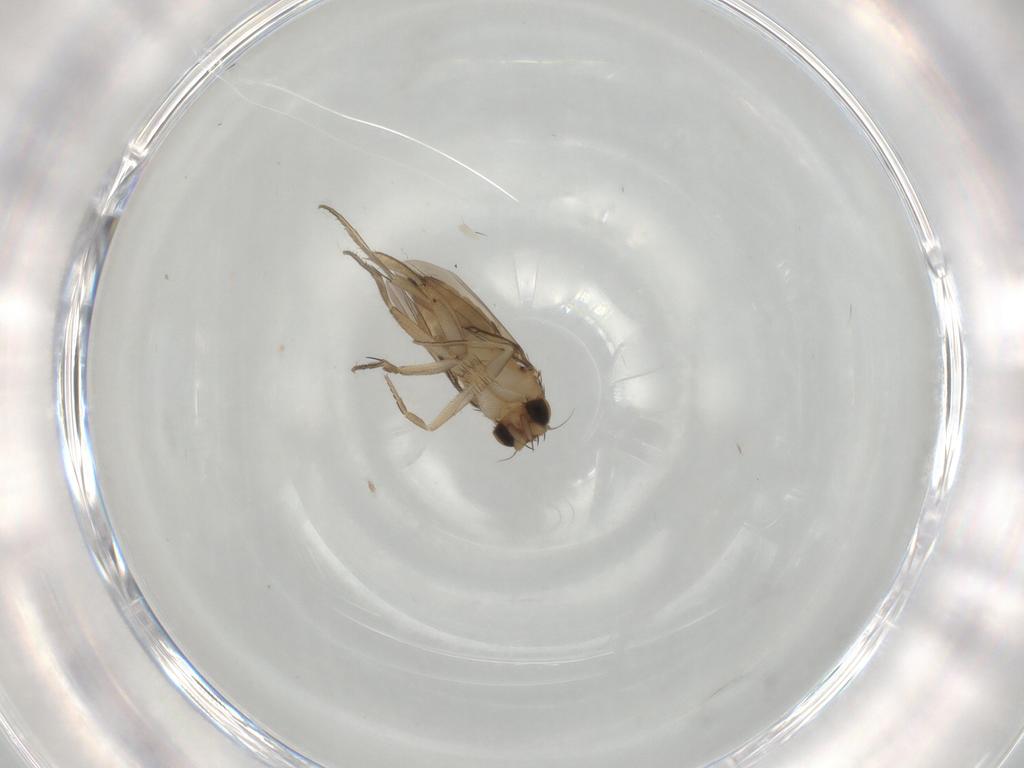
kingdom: Animalia
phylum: Arthropoda
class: Insecta
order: Diptera
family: Phoridae
